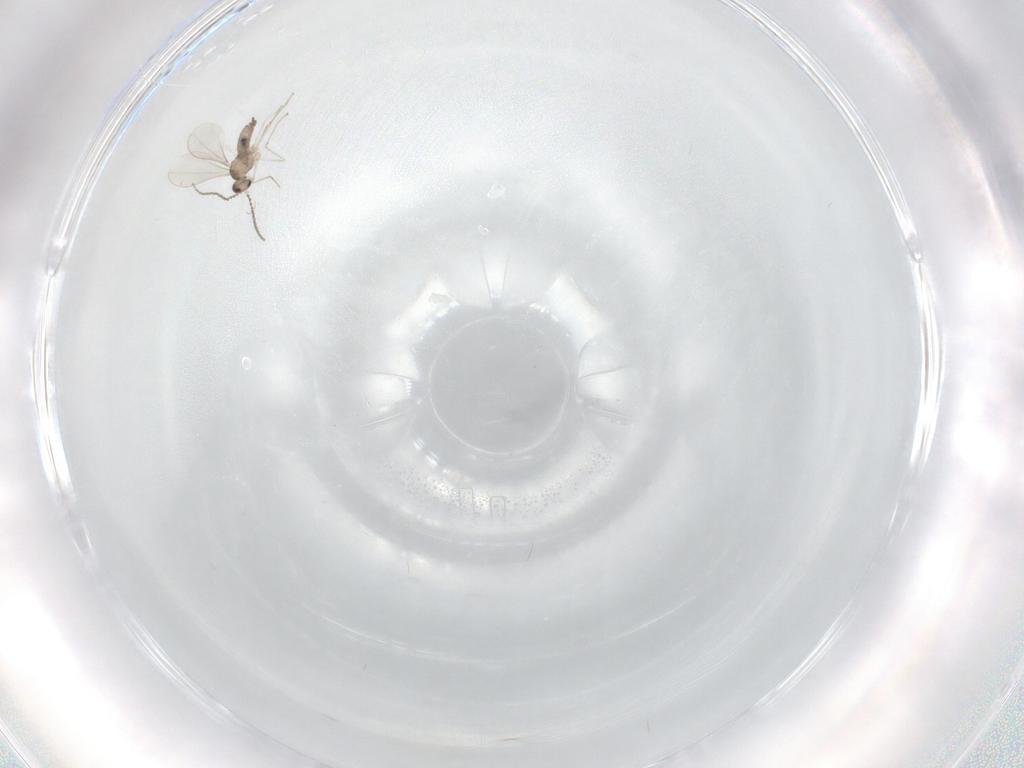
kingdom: Animalia
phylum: Arthropoda
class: Insecta
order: Diptera
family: Cecidomyiidae
